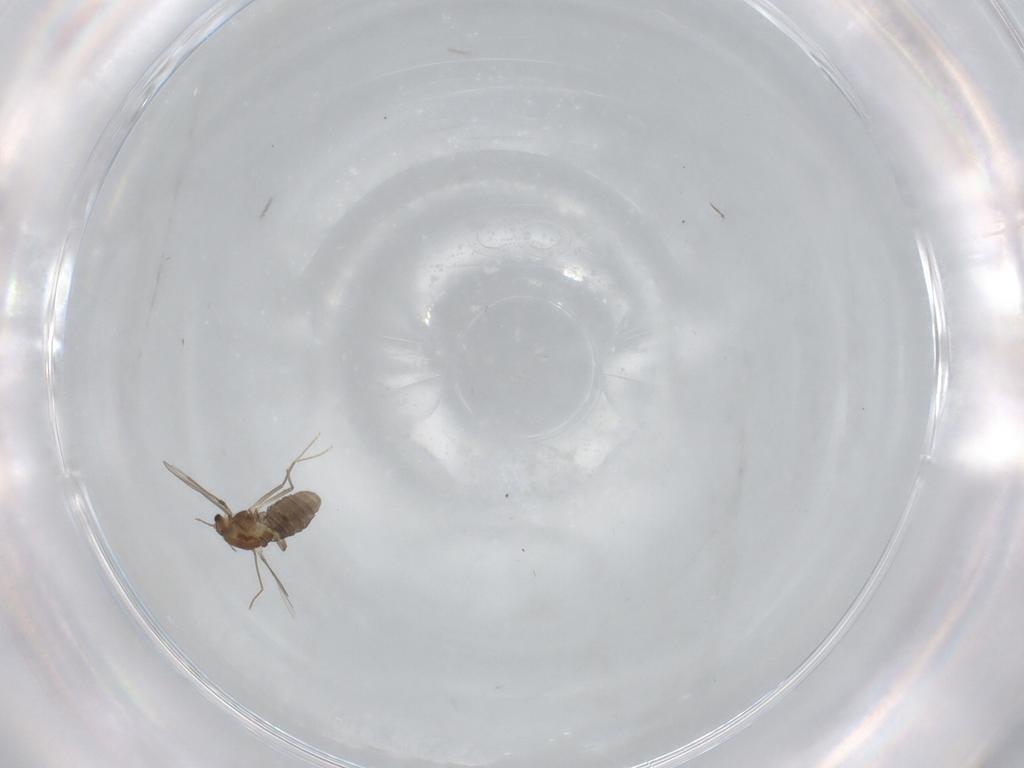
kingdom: Animalia
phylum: Arthropoda
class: Insecta
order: Diptera
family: Chironomidae
